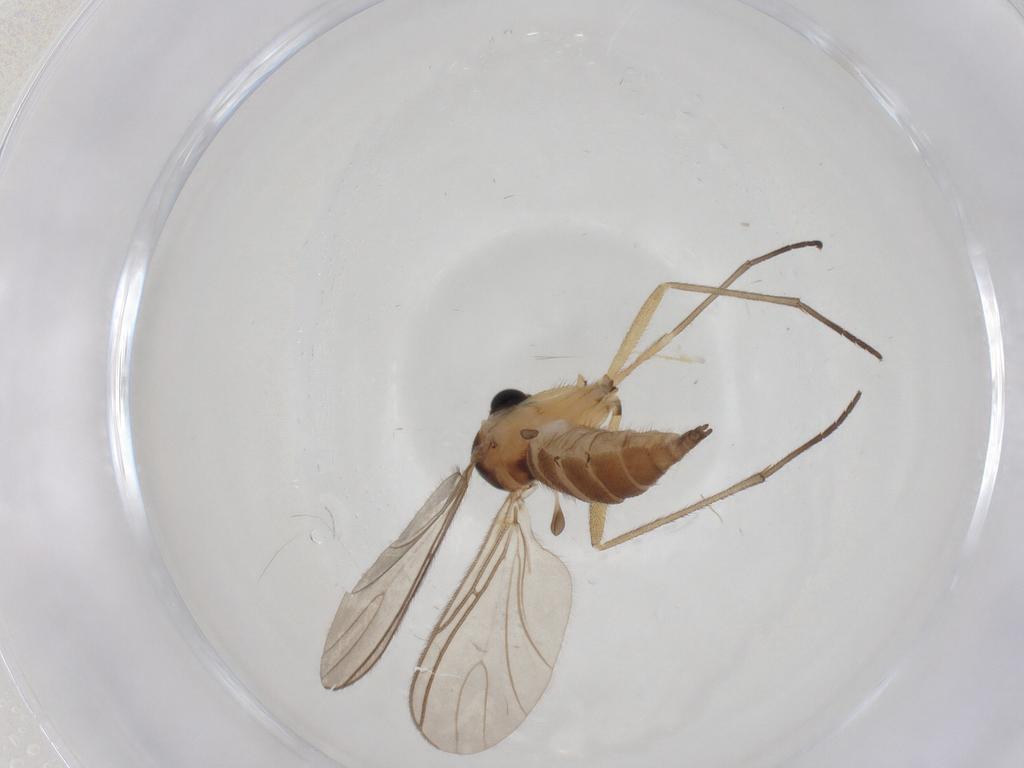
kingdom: Animalia
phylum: Arthropoda
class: Insecta
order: Diptera
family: Sciaridae
